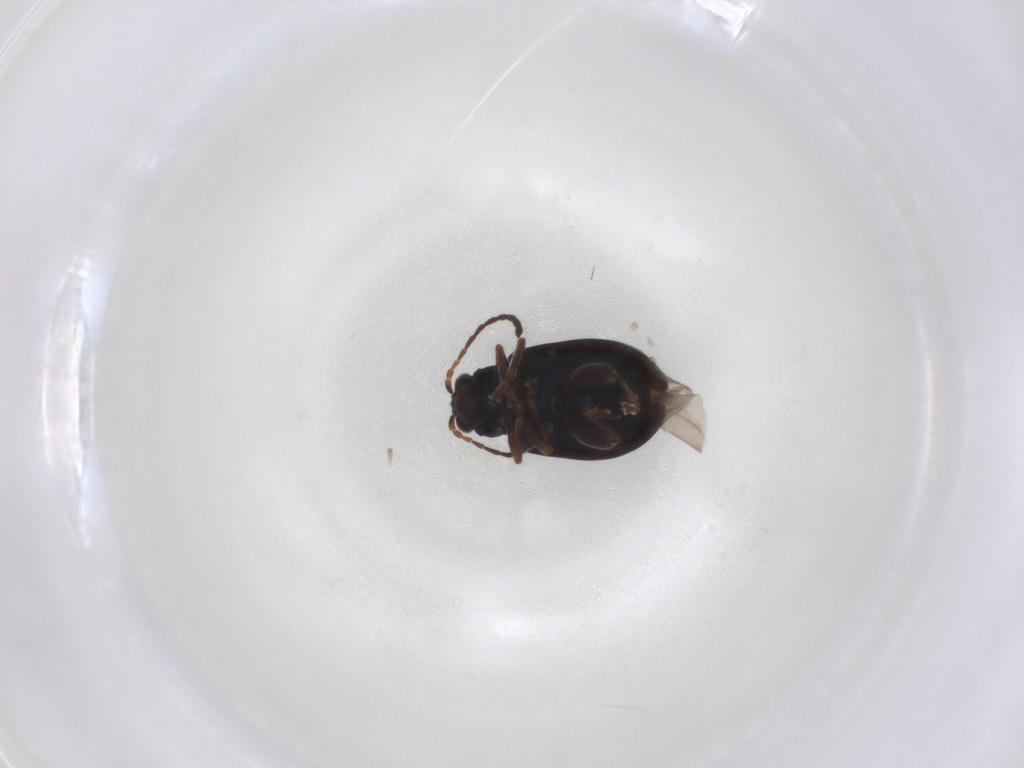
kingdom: Animalia
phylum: Arthropoda
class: Insecta
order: Coleoptera
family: Chrysomelidae
